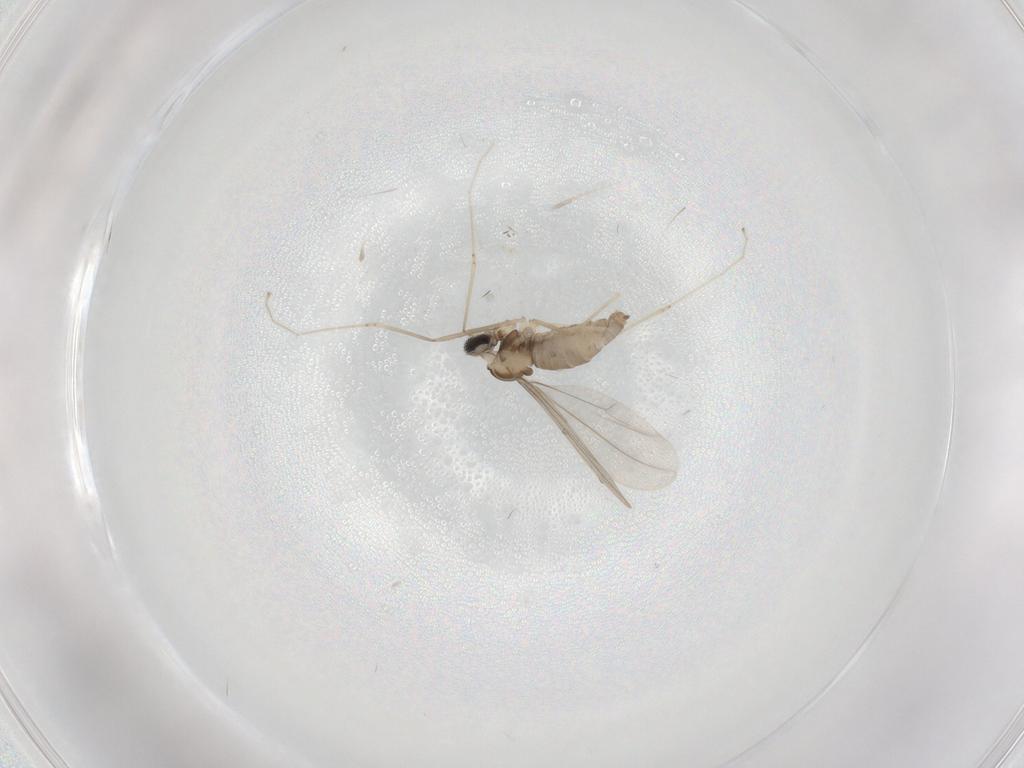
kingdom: Animalia
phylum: Arthropoda
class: Insecta
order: Diptera
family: Cecidomyiidae
